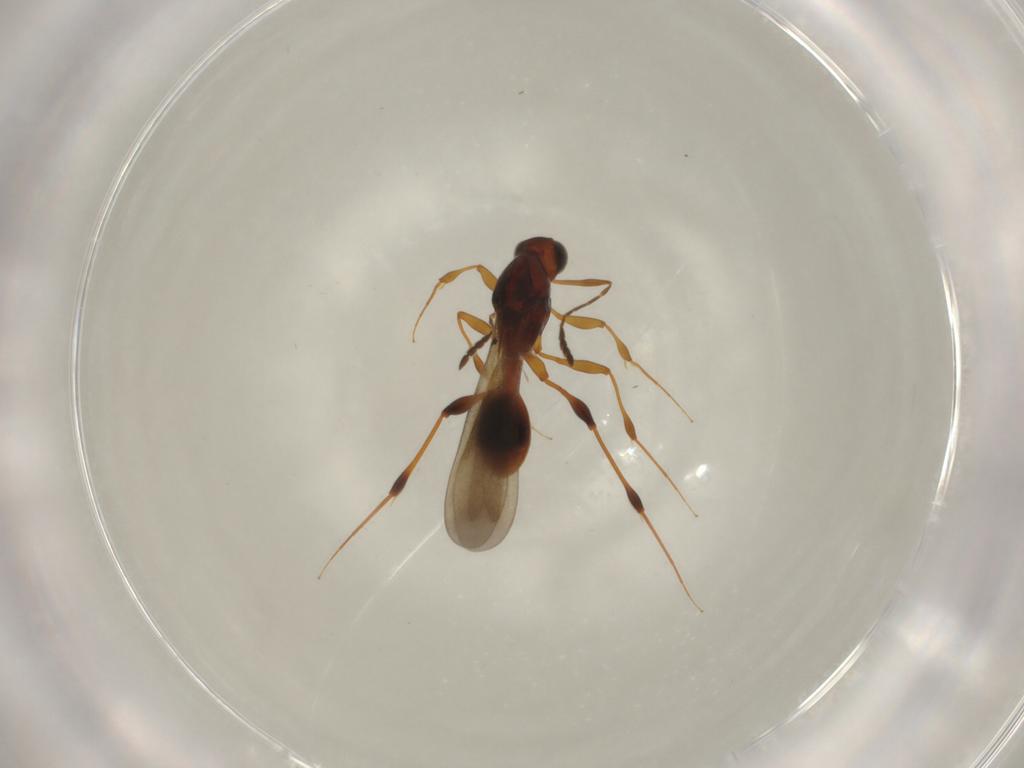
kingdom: Animalia
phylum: Arthropoda
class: Insecta
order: Hymenoptera
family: Platygastridae
